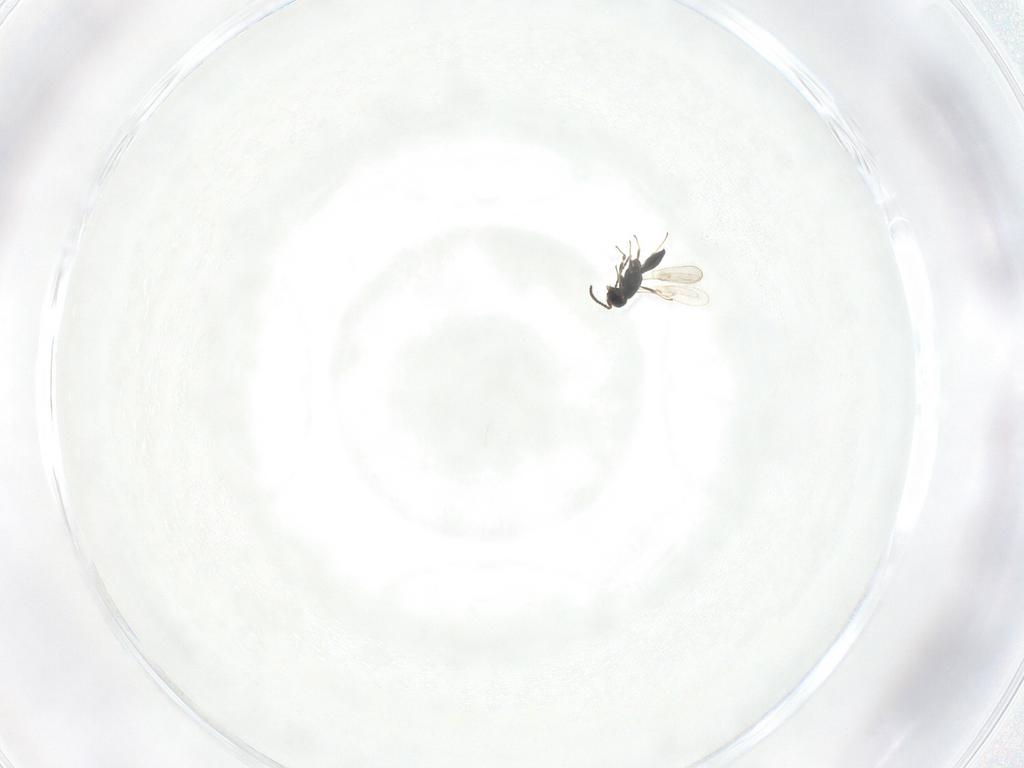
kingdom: Animalia
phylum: Arthropoda
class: Insecta
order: Hymenoptera
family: Scelionidae
